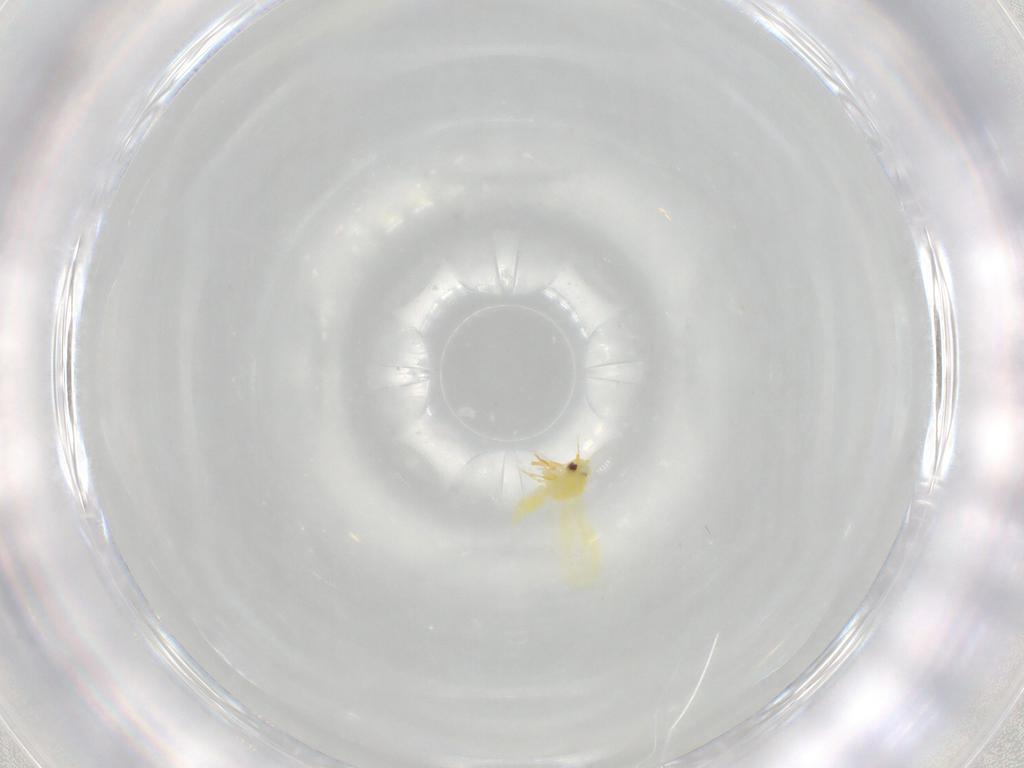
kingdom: Animalia
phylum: Arthropoda
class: Insecta
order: Hemiptera
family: Aleyrodidae
